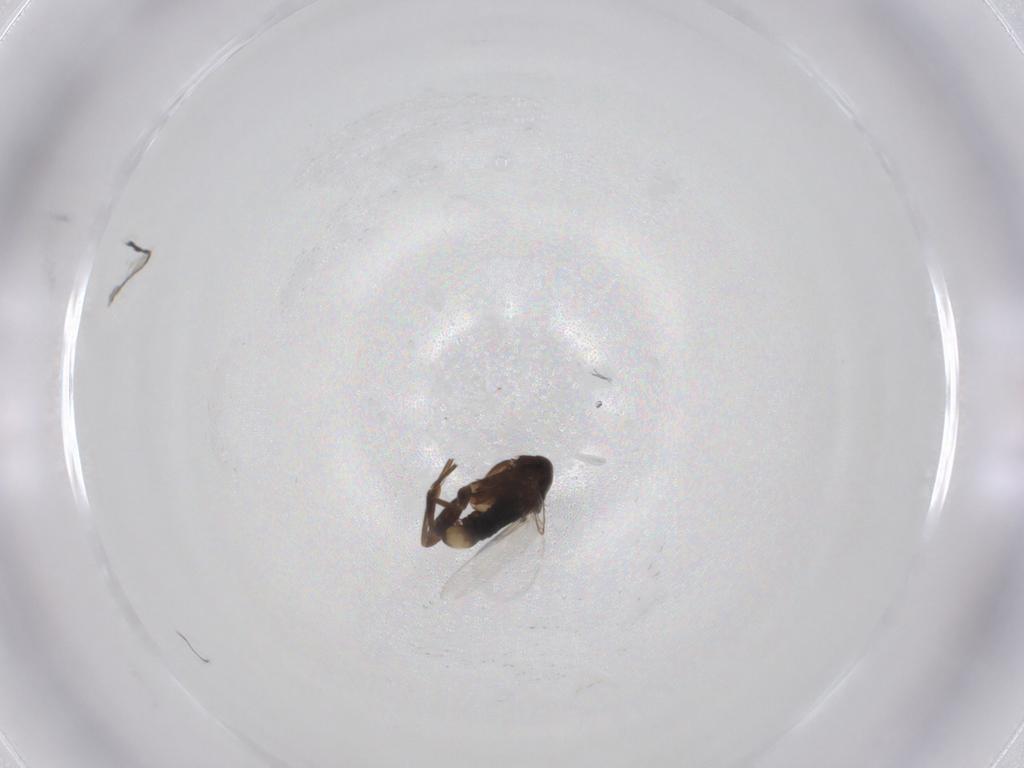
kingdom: Animalia
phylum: Arthropoda
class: Insecta
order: Diptera
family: Phoridae
